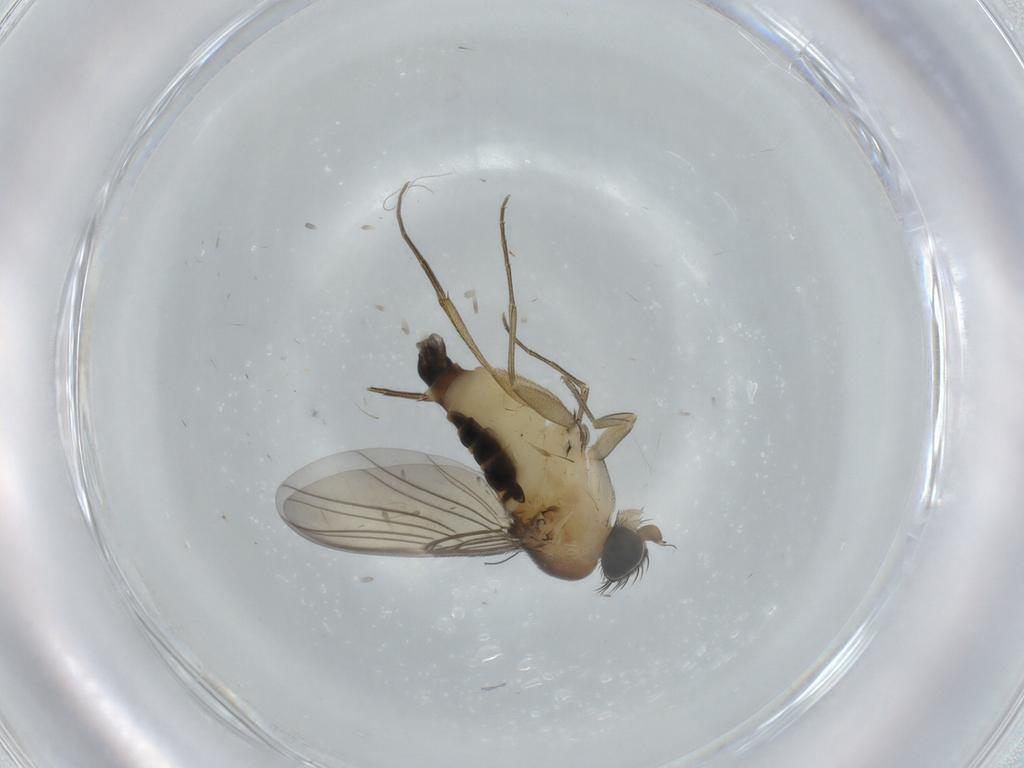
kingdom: Animalia
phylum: Arthropoda
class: Insecta
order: Diptera
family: Phoridae
